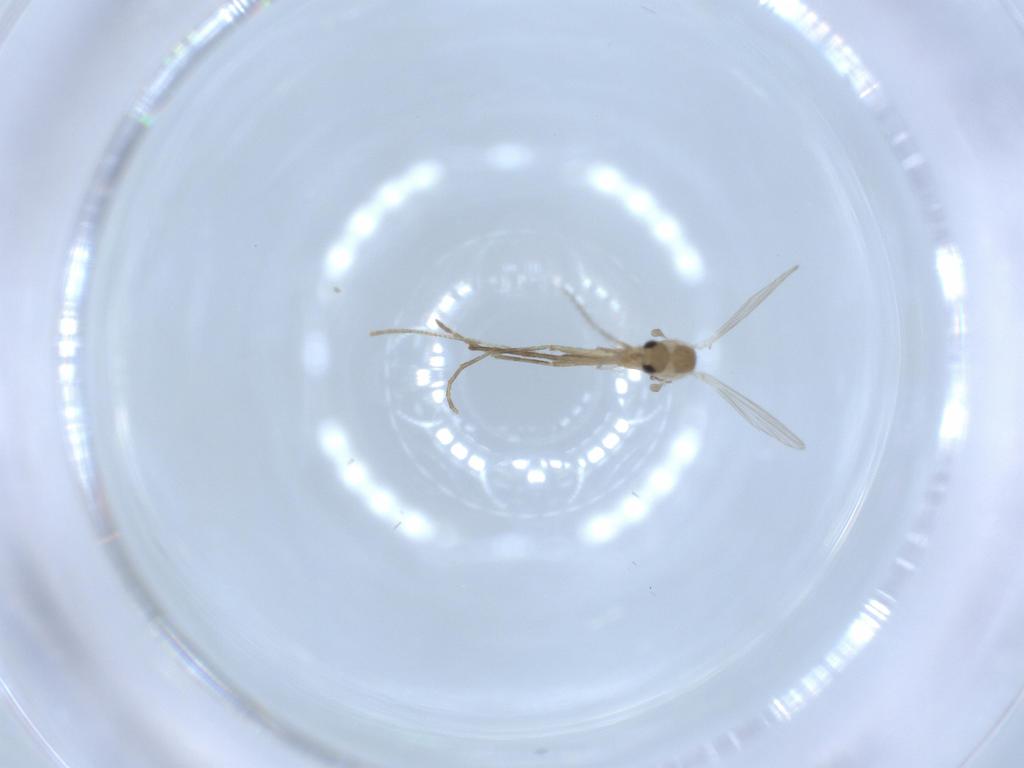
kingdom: Animalia
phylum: Arthropoda
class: Insecta
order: Diptera
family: Psychodidae
